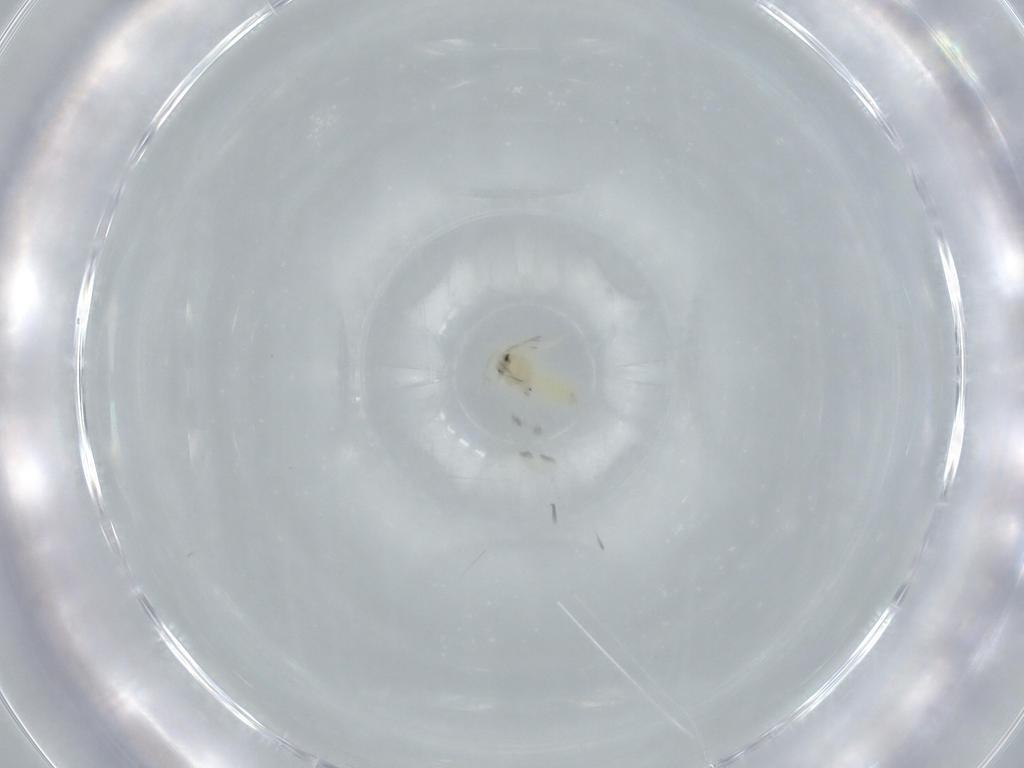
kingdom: Animalia
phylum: Arthropoda
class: Insecta
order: Hemiptera
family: Aleyrodidae
